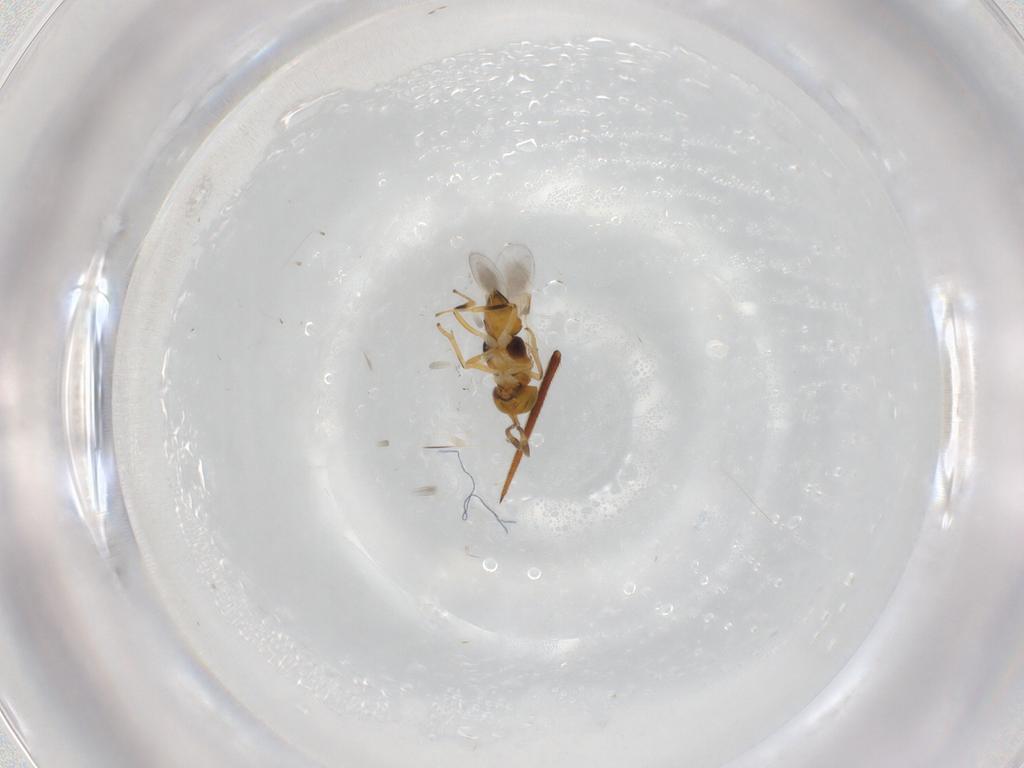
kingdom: Animalia
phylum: Arthropoda
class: Insecta
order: Hymenoptera
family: Ichneumonidae
